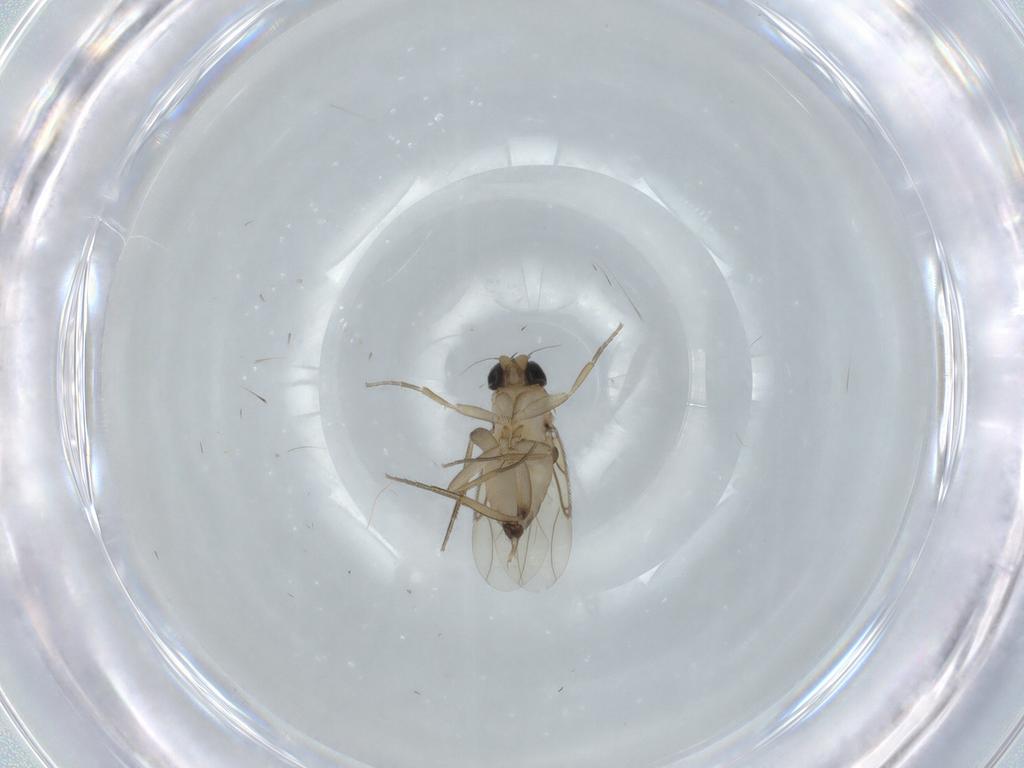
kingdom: Animalia
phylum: Arthropoda
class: Insecta
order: Diptera
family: Phoridae
